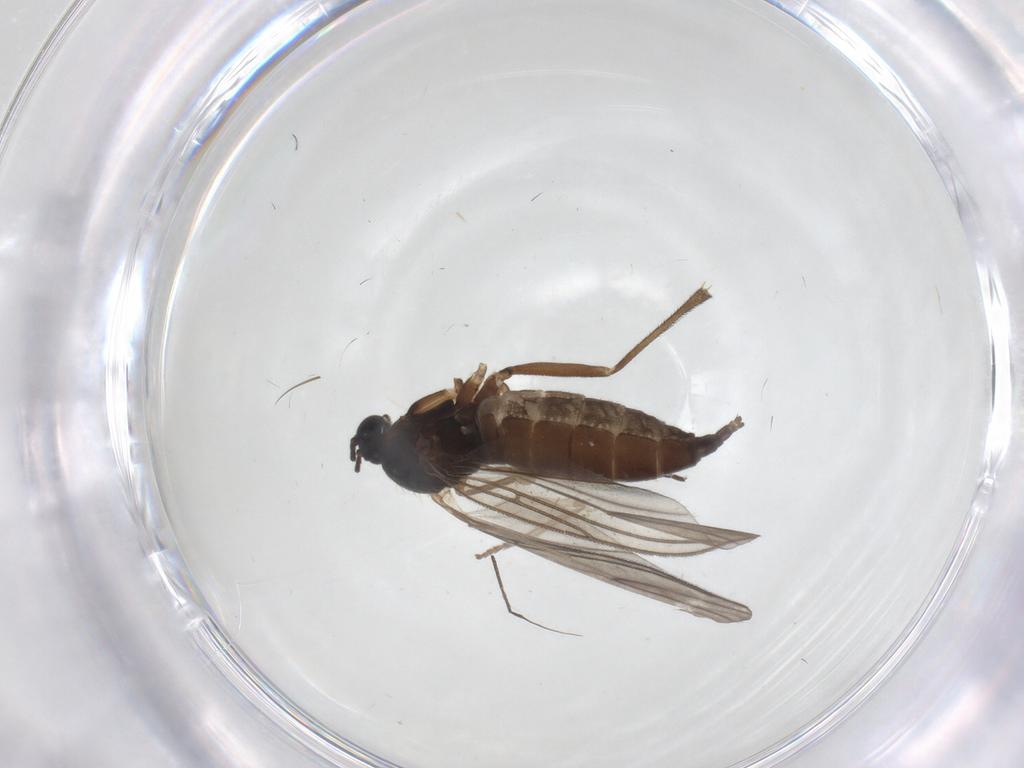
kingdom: Animalia
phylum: Arthropoda
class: Insecta
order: Diptera
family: Sciaridae
